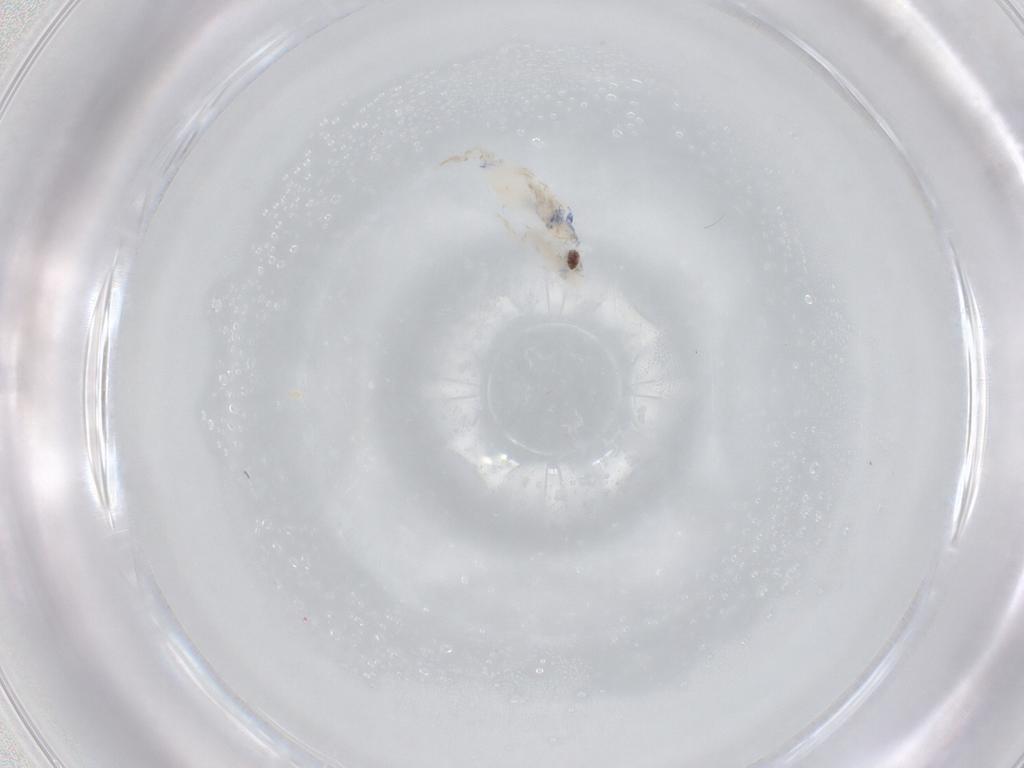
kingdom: Animalia
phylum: Arthropoda
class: Collembola
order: Entomobryomorpha
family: Entomobryidae
